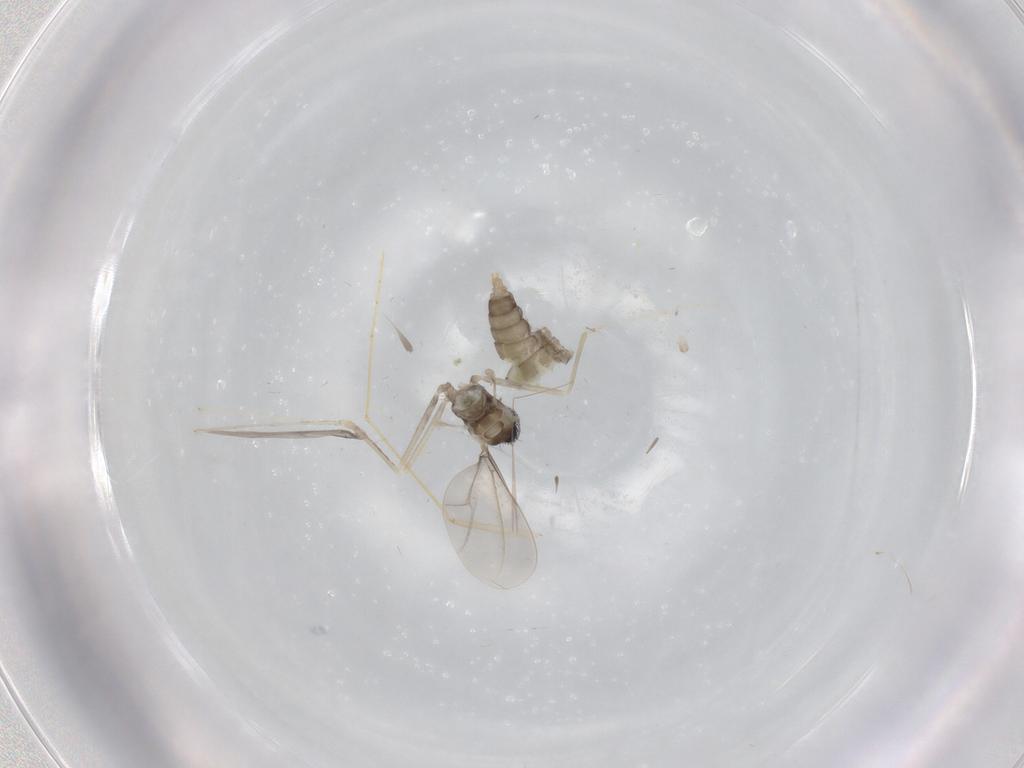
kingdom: Animalia
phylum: Arthropoda
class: Insecta
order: Diptera
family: Cecidomyiidae
